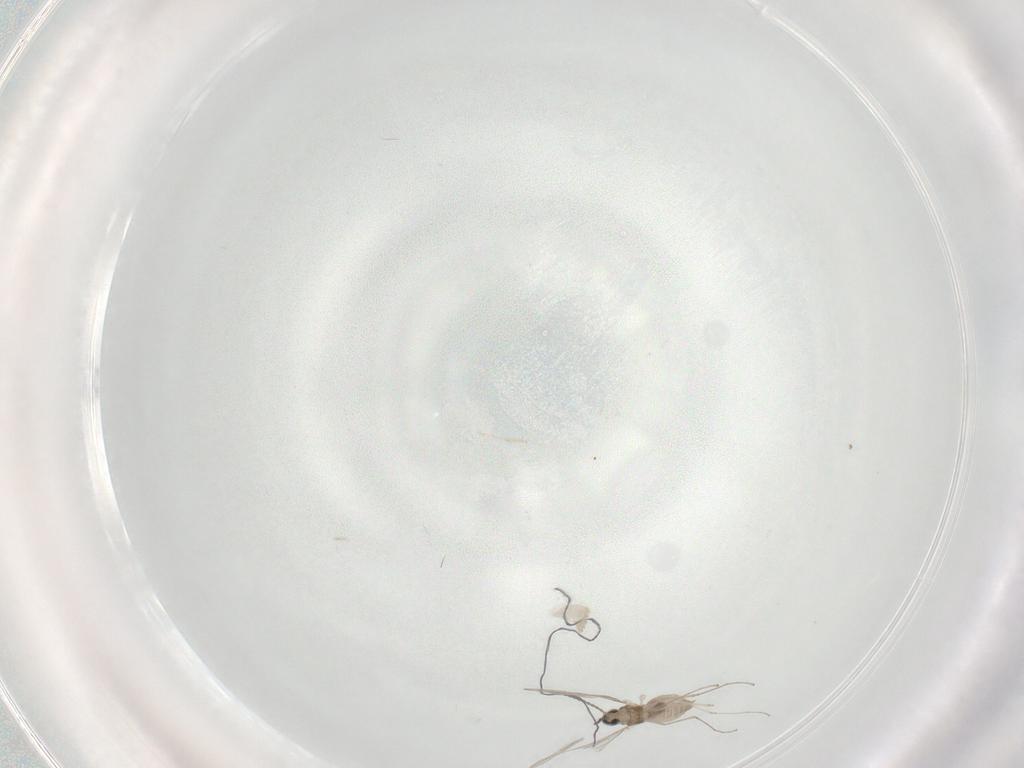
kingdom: Animalia
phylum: Arthropoda
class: Insecta
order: Diptera
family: Cecidomyiidae
